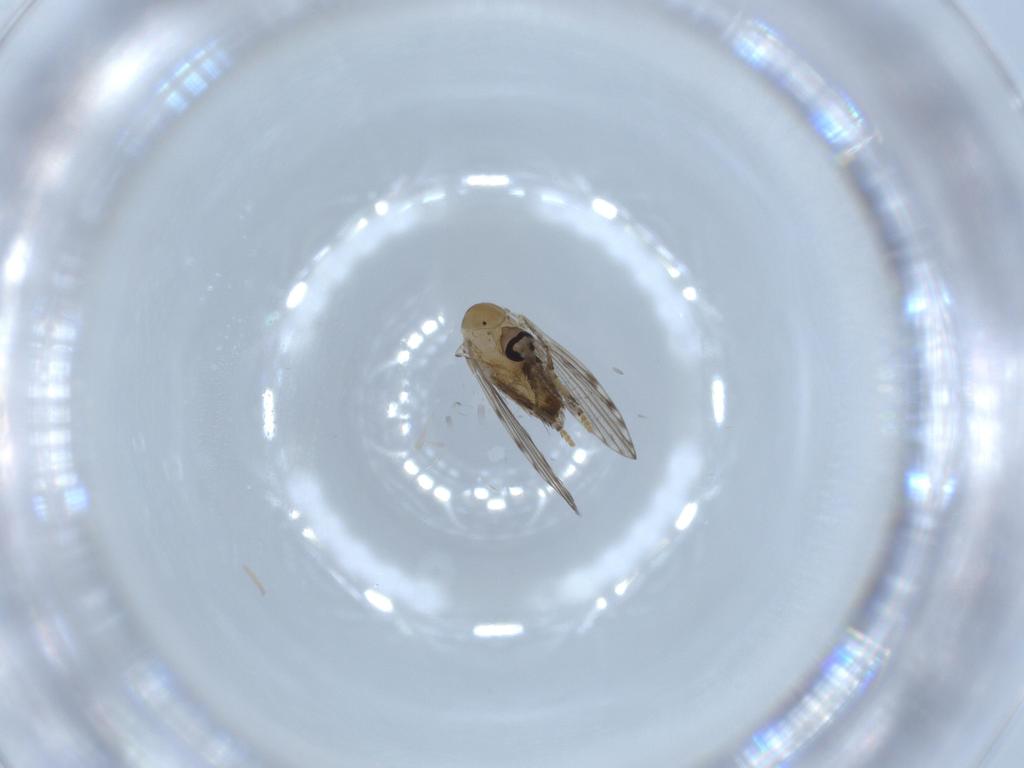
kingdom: Animalia
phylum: Arthropoda
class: Insecta
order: Diptera
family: Psychodidae
